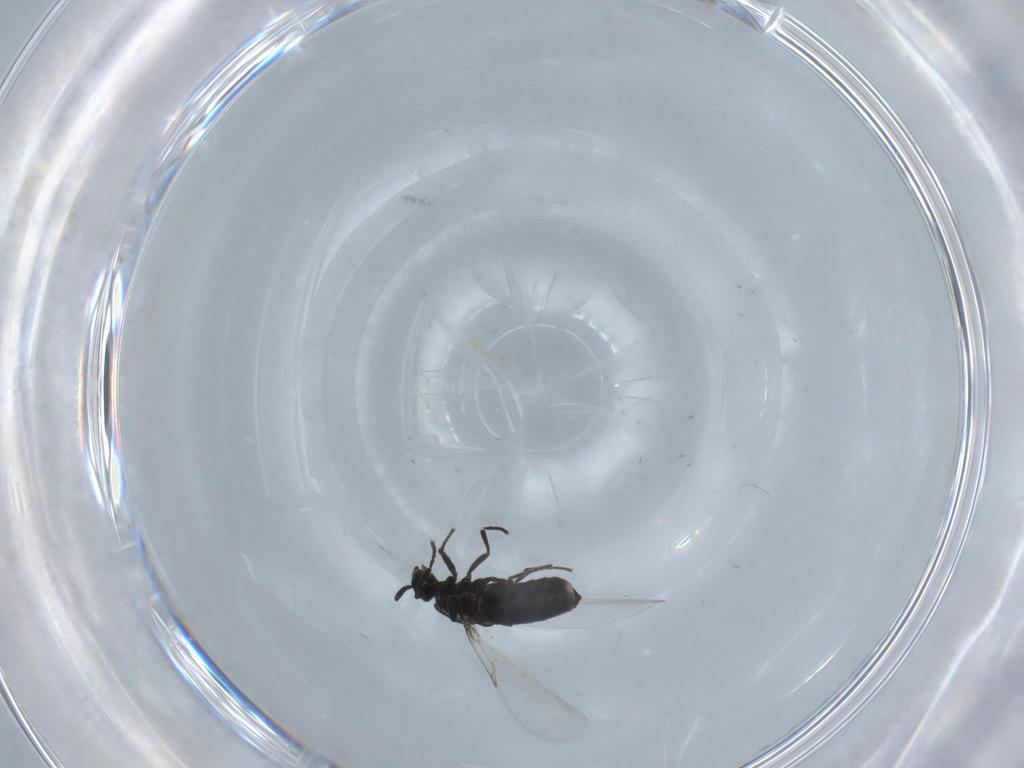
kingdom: Animalia
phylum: Arthropoda
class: Insecta
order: Diptera
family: Scatopsidae
